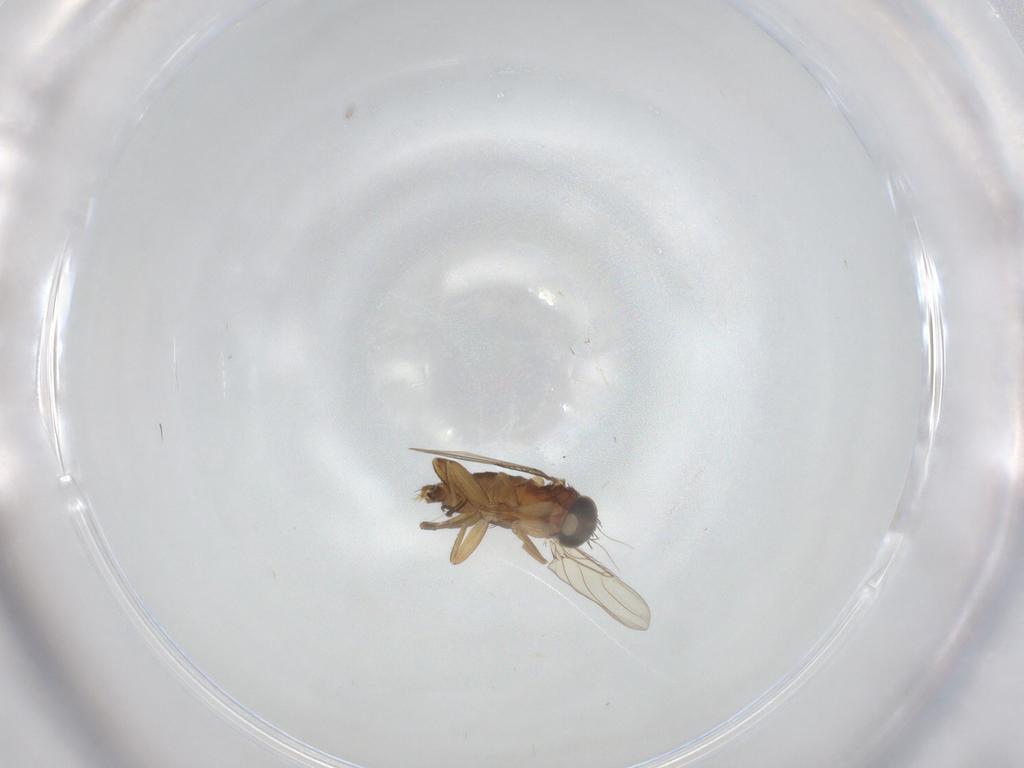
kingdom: Animalia
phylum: Arthropoda
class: Insecta
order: Diptera
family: Phoridae
